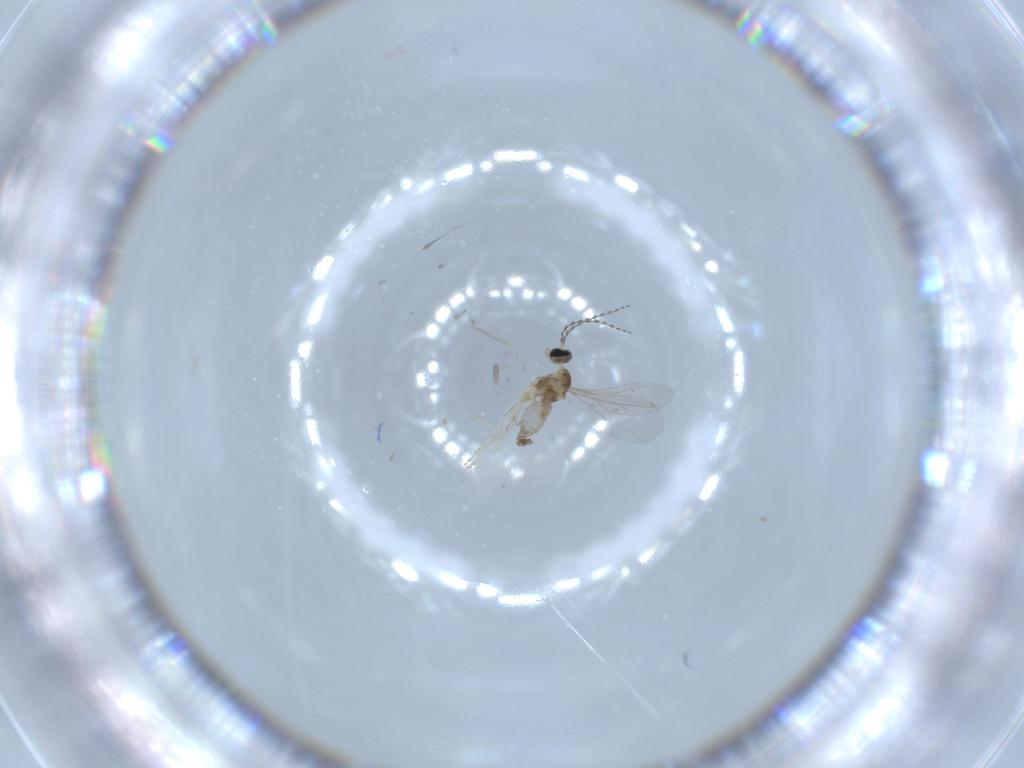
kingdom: Animalia
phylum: Arthropoda
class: Insecta
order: Diptera
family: Cecidomyiidae
